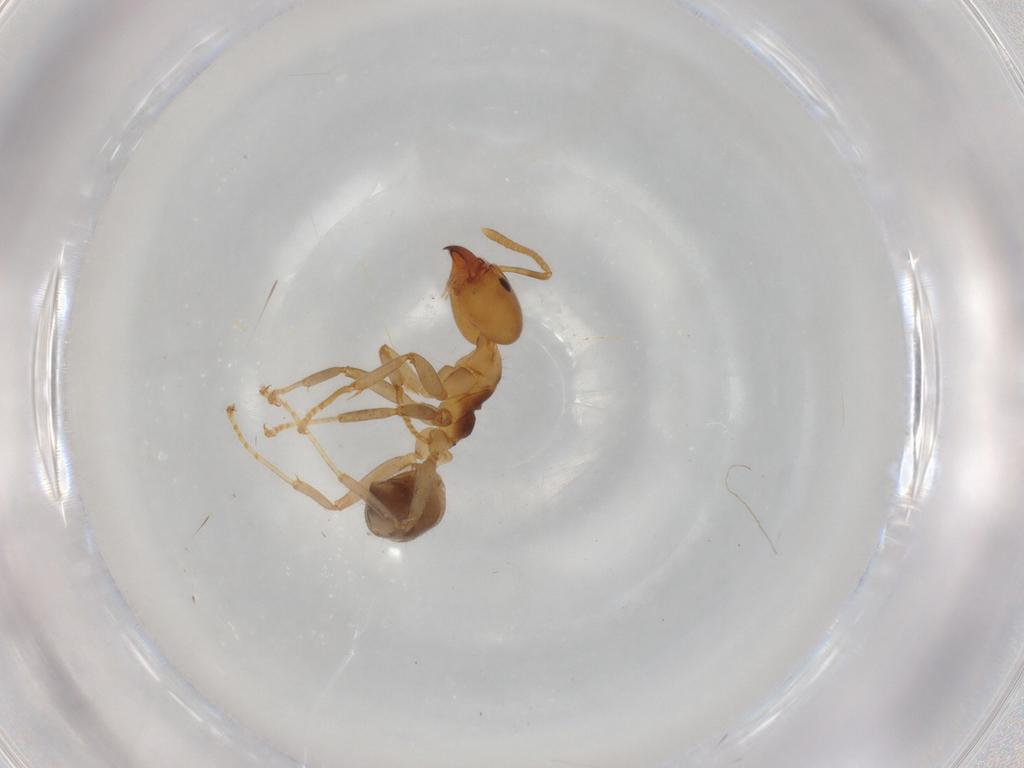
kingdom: Animalia
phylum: Arthropoda
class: Insecta
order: Hymenoptera
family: Formicidae
